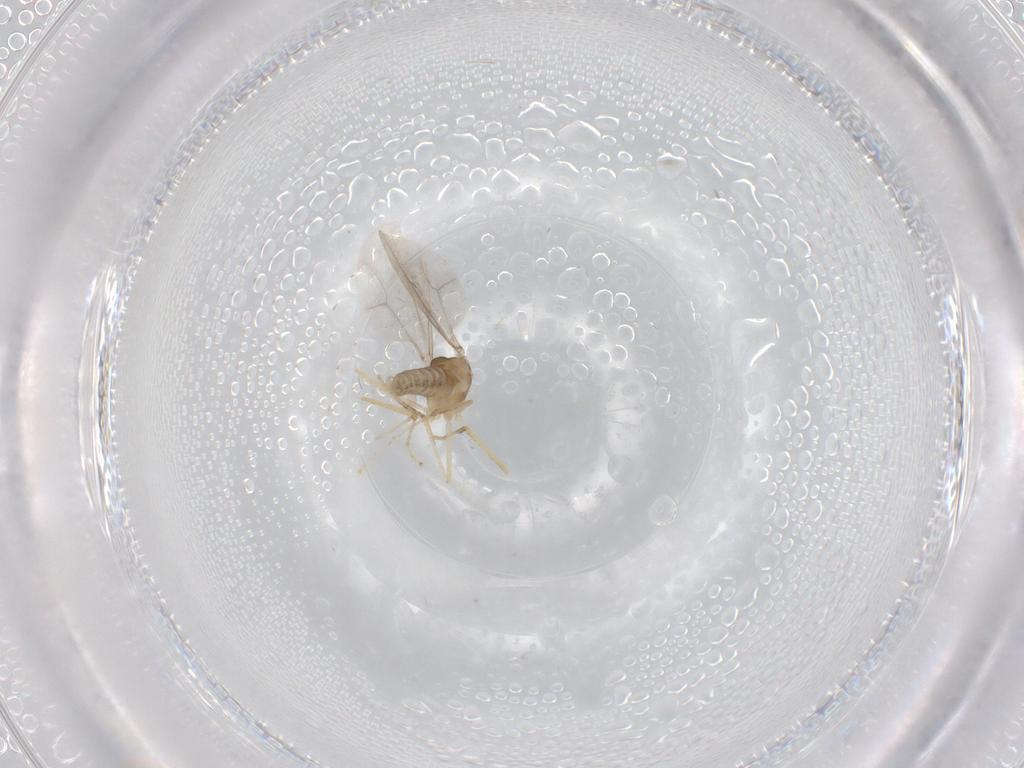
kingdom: Animalia
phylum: Arthropoda
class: Insecta
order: Diptera
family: Cecidomyiidae
